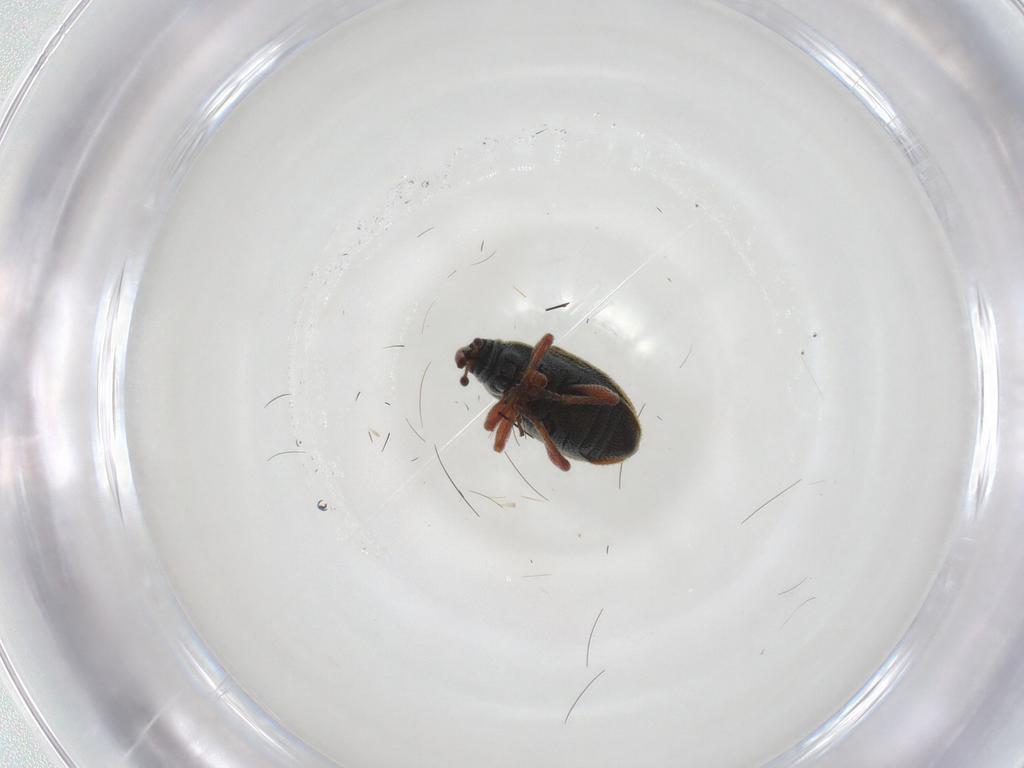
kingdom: Animalia
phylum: Arthropoda
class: Insecta
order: Coleoptera
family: Curculionidae
